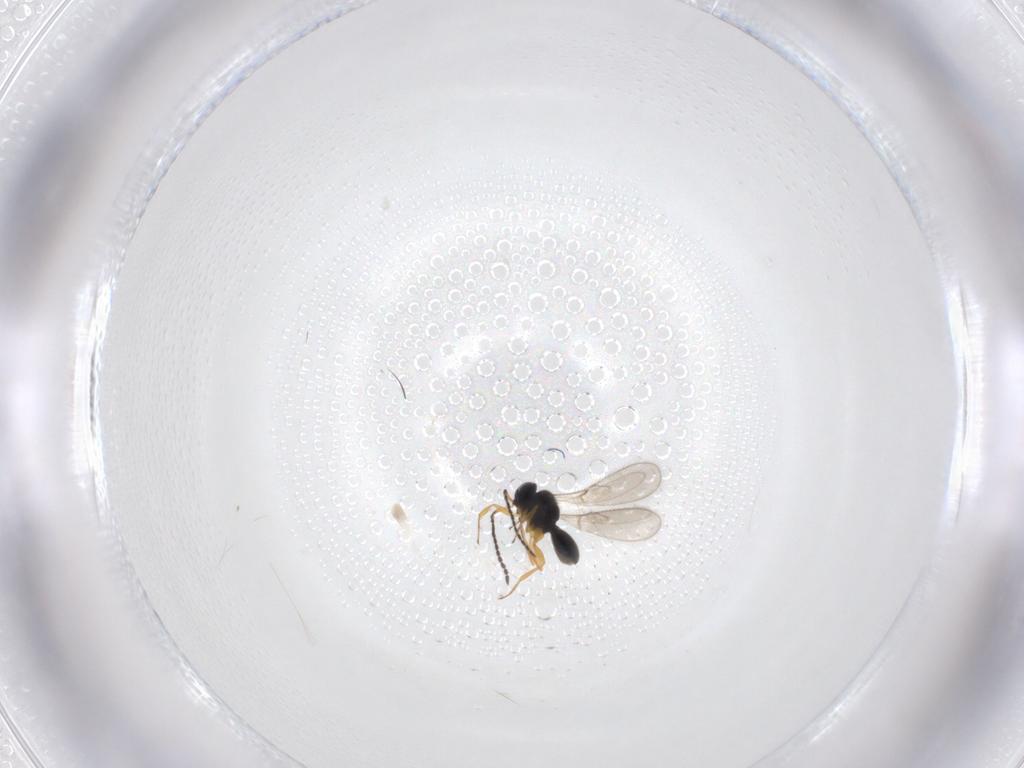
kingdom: Animalia
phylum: Arthropoda
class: Insecta
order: Hymenoptera
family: Scelionidae
